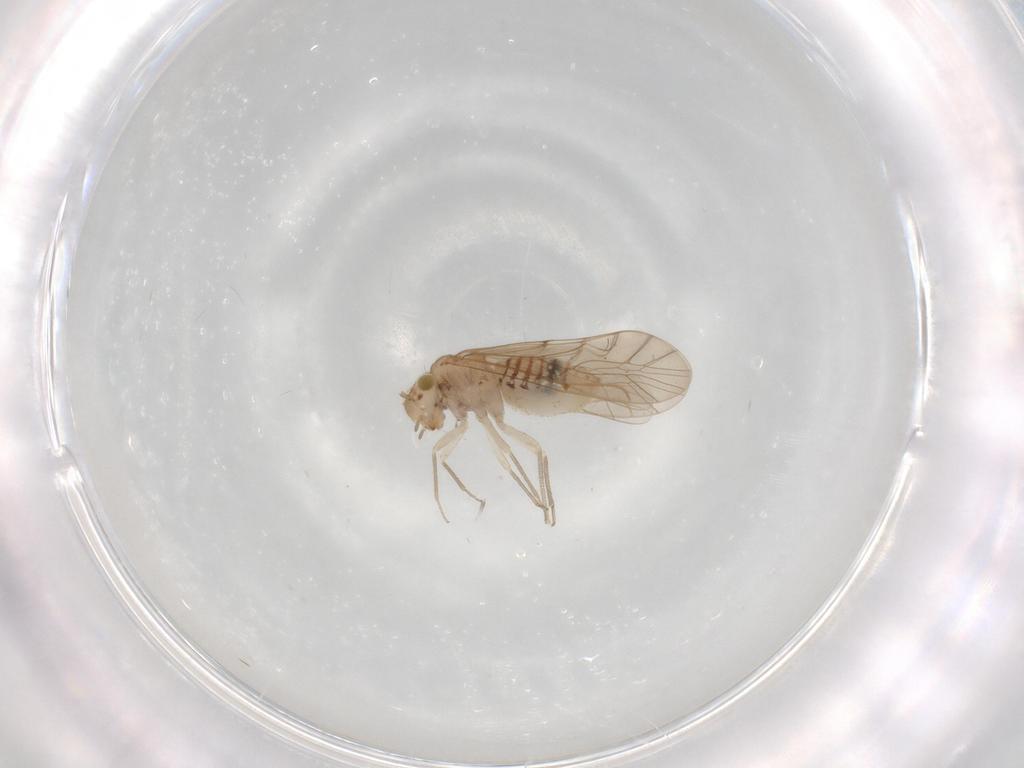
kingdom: Animalia
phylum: Arthropoda
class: Insecta
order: Psocodea
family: Lachesillidae
